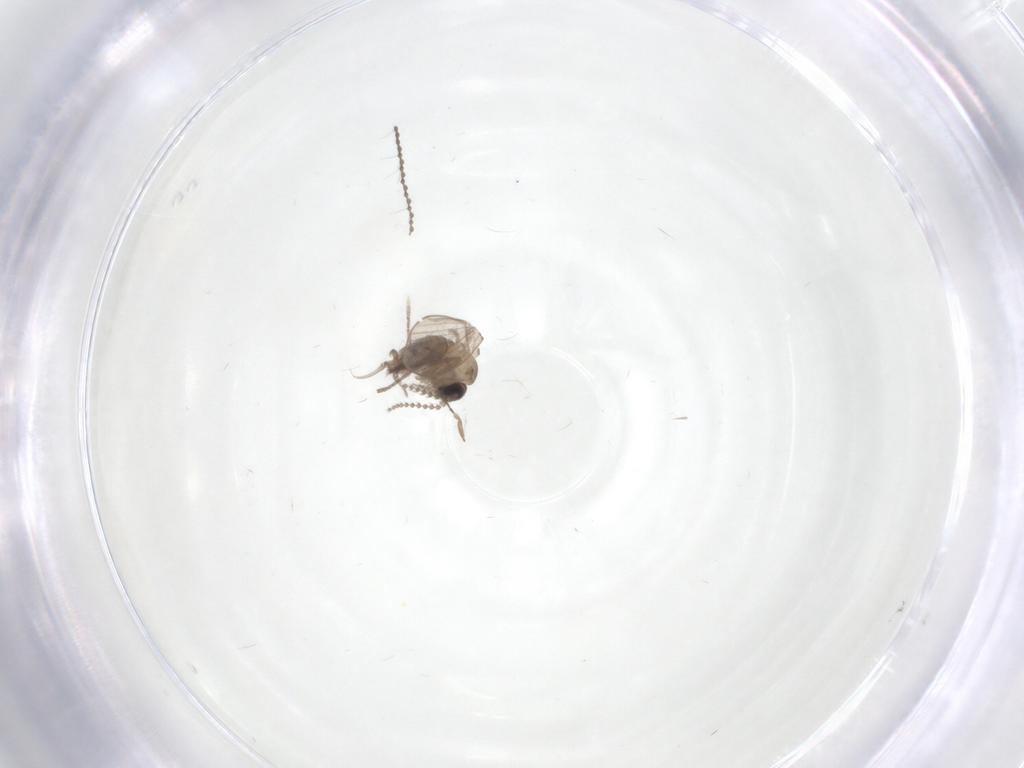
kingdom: Animalia
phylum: Arthropoda
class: Insecta
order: Diptera
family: Psychodidae
